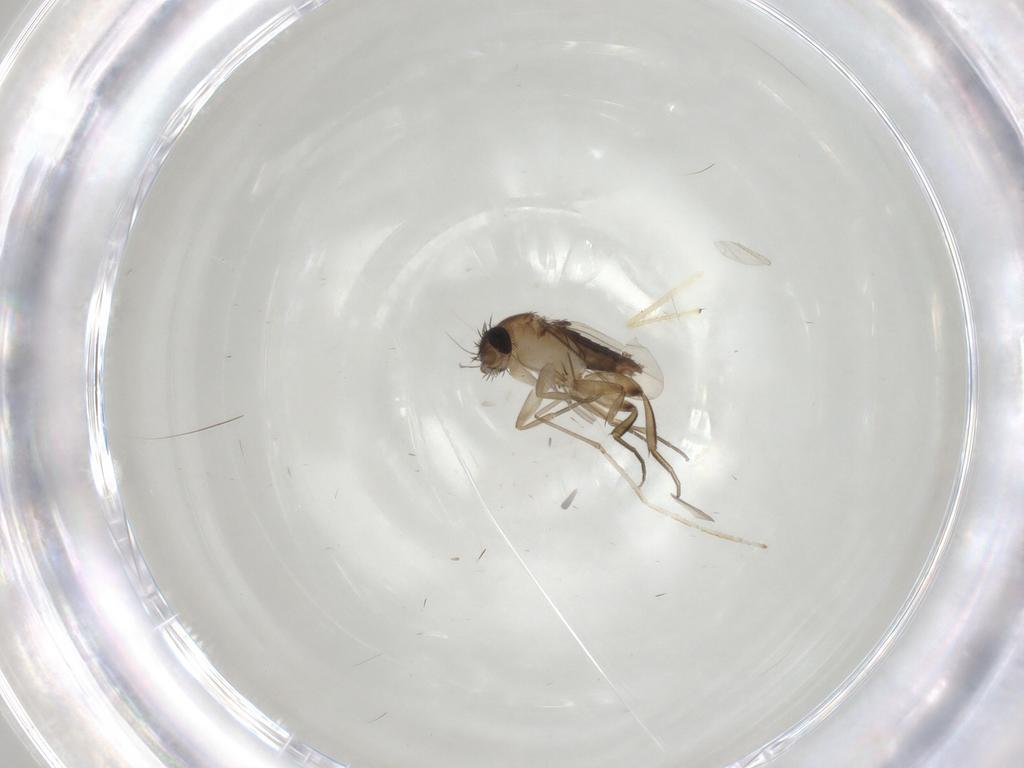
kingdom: Animalia
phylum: Arthropoda
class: Insecta
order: Diptera
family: Phoridae
